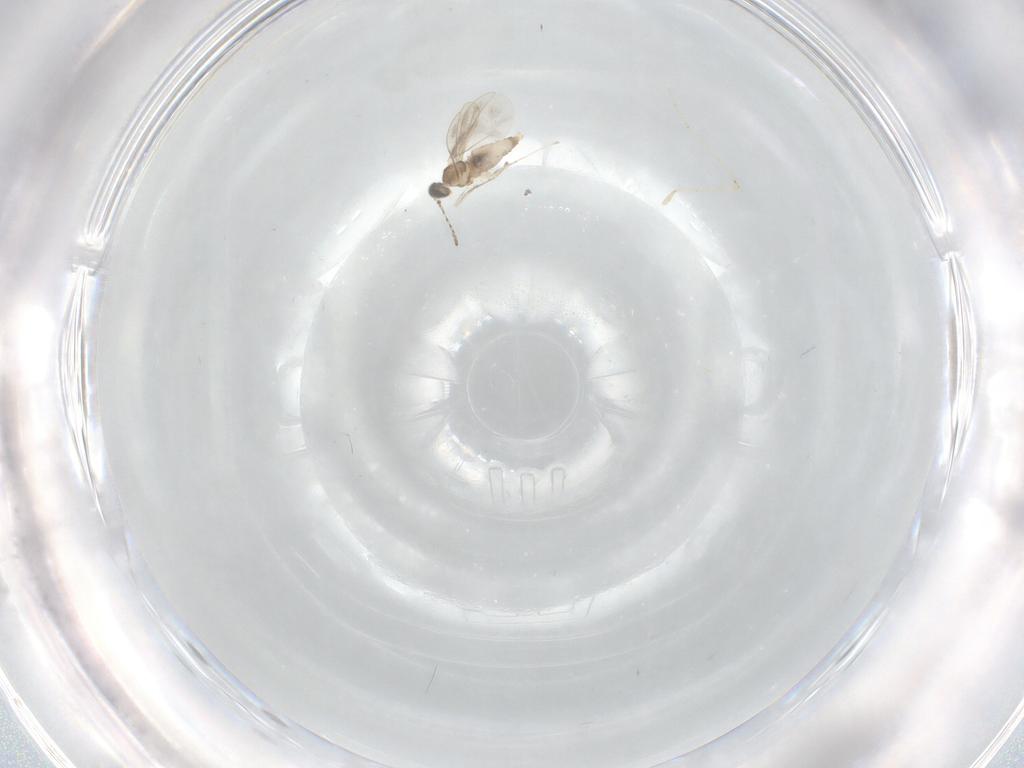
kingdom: Animalia
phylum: Arthropoda
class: Insecta
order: Diptera
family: Cecidomyiidae
